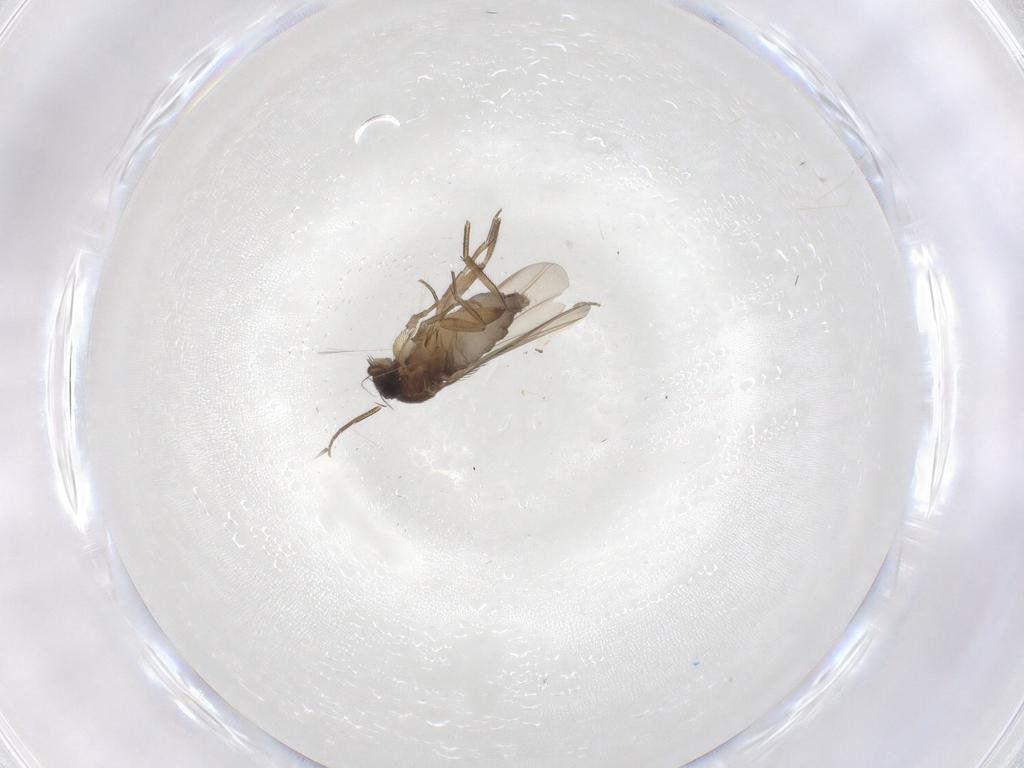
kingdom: Animalia
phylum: Arthropoda
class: Insecta
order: Diptera
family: Phoridae
